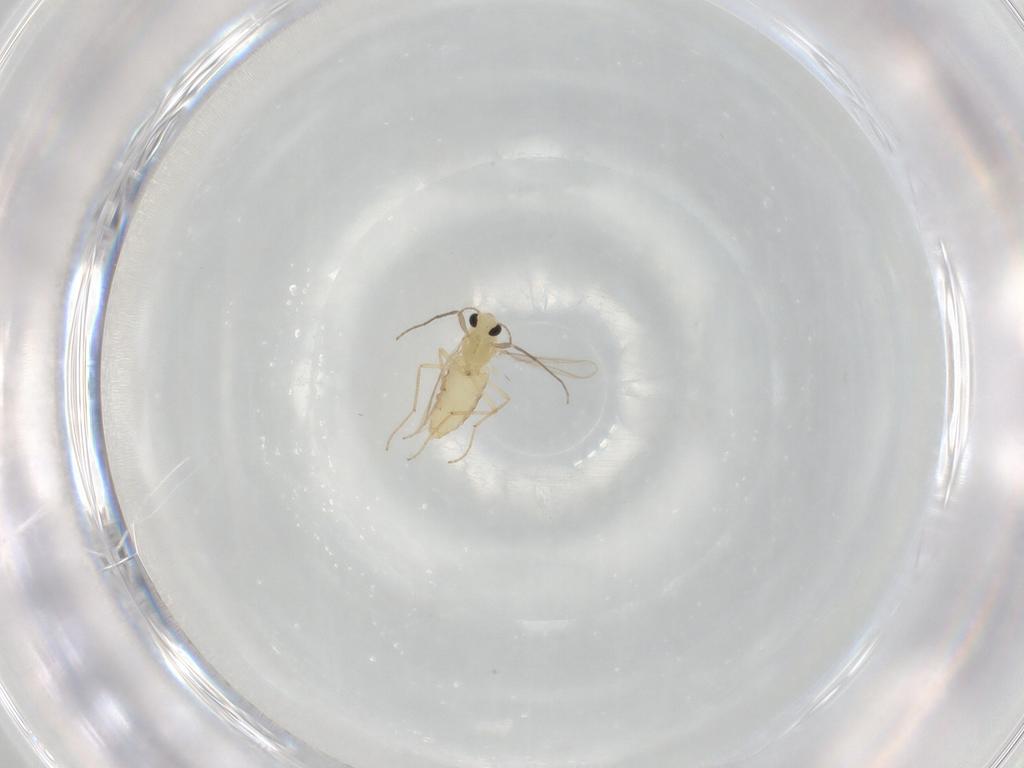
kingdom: Animalia
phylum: Arthropoda
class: Insecta
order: Diptera
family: Chironomidae
